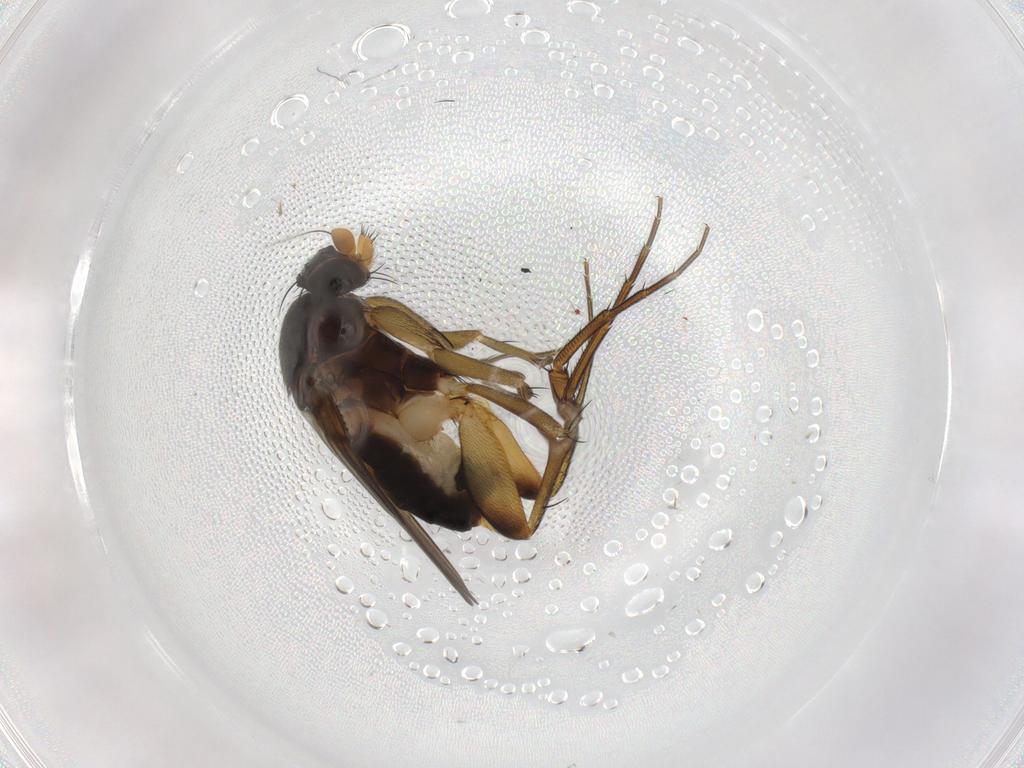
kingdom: Animalia
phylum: Arthropoda
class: Insecta
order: Diptera
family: Phoridae
